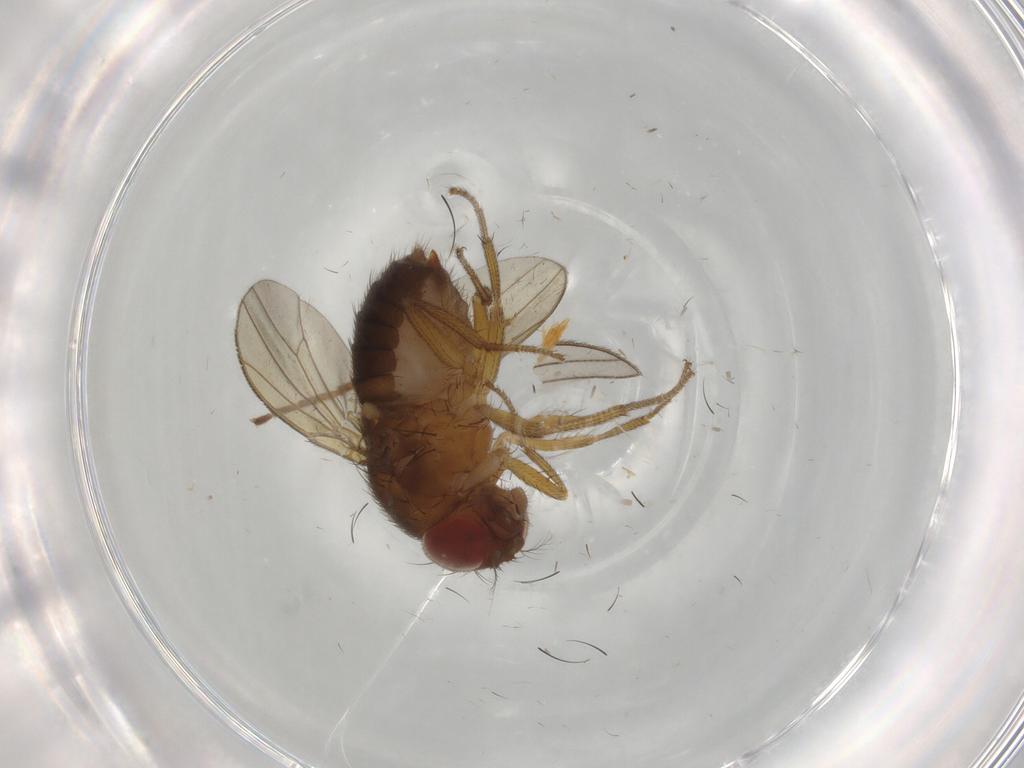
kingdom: Animalia
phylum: Arthropoda
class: Insecta
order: Diptera
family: Drosophilidae
